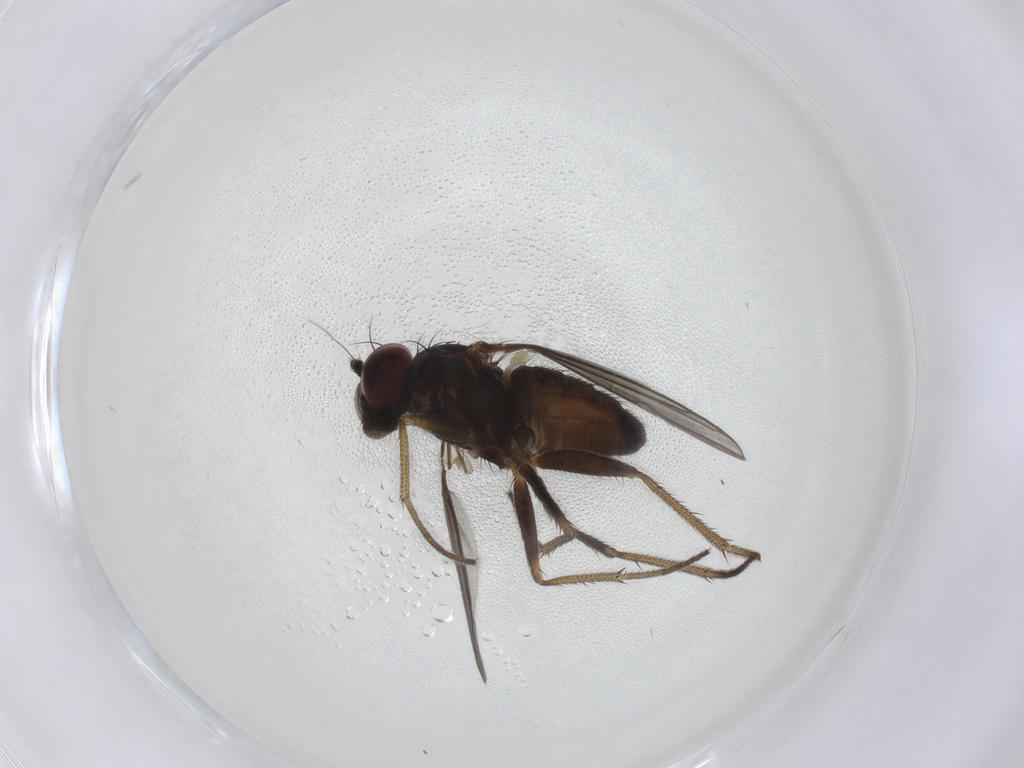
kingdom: Animalia
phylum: Arthropoda
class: Insecta
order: Diptera
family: Dolichopodidae
